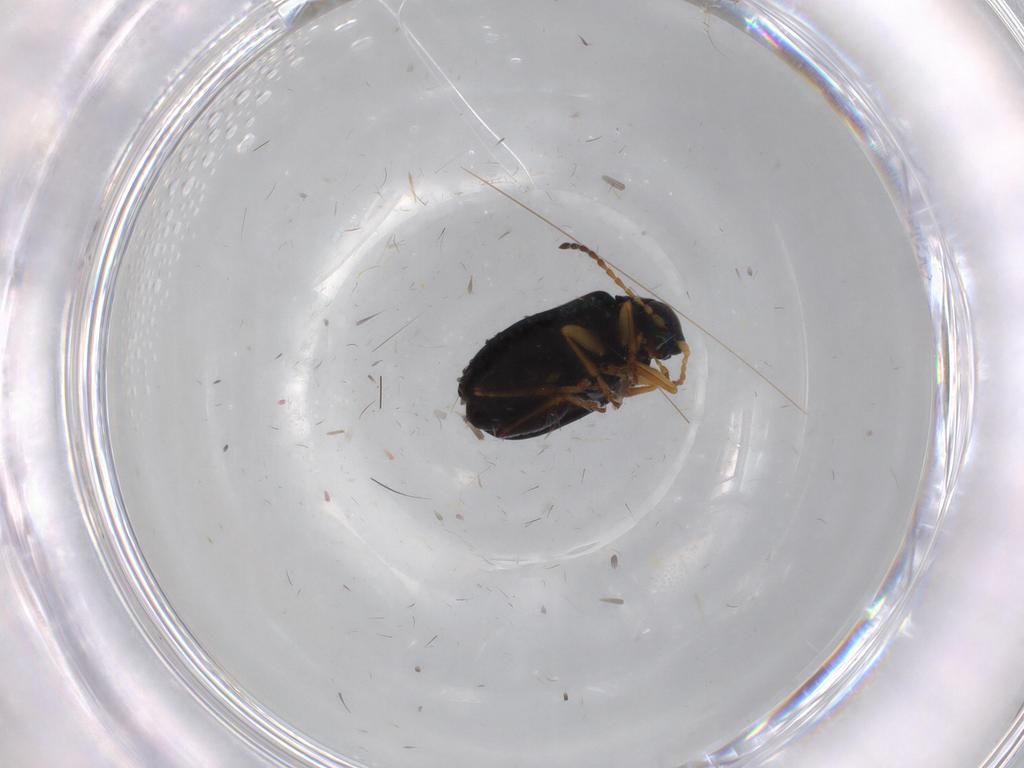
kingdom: Animalia
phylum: Arthropoda
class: Insecta
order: Coleoptera
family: Chrysomelidae
